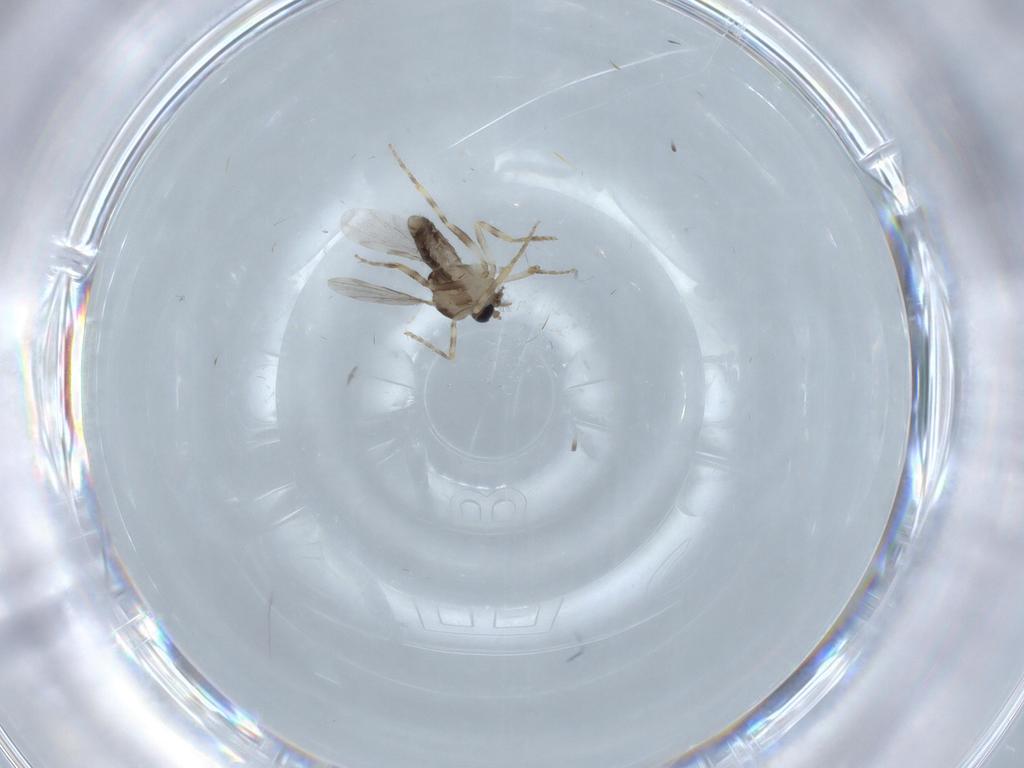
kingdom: Animalia
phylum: Arthropoda
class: Insecta
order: Diptera
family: Ceratopogonidae
